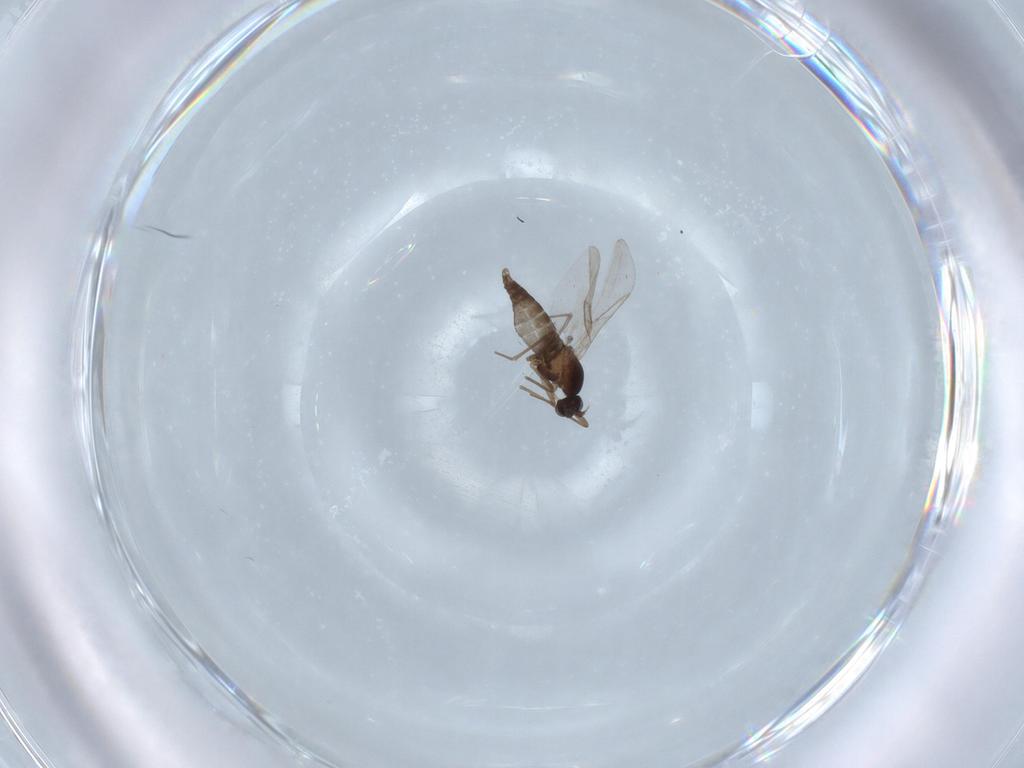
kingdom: Animalia
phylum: Arthropoda
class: Insecta
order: Diptera
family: Cecidomyiidae
